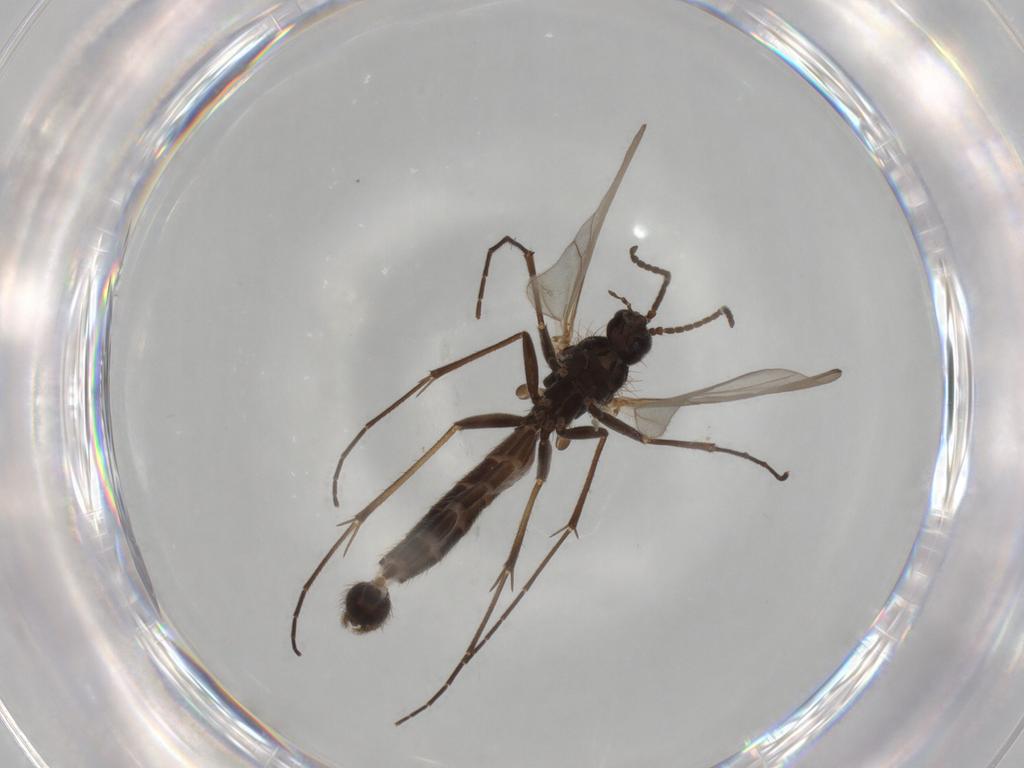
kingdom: Animalia
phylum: Arthropoda
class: Insecta
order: Diptera
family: Mycetophilidae
